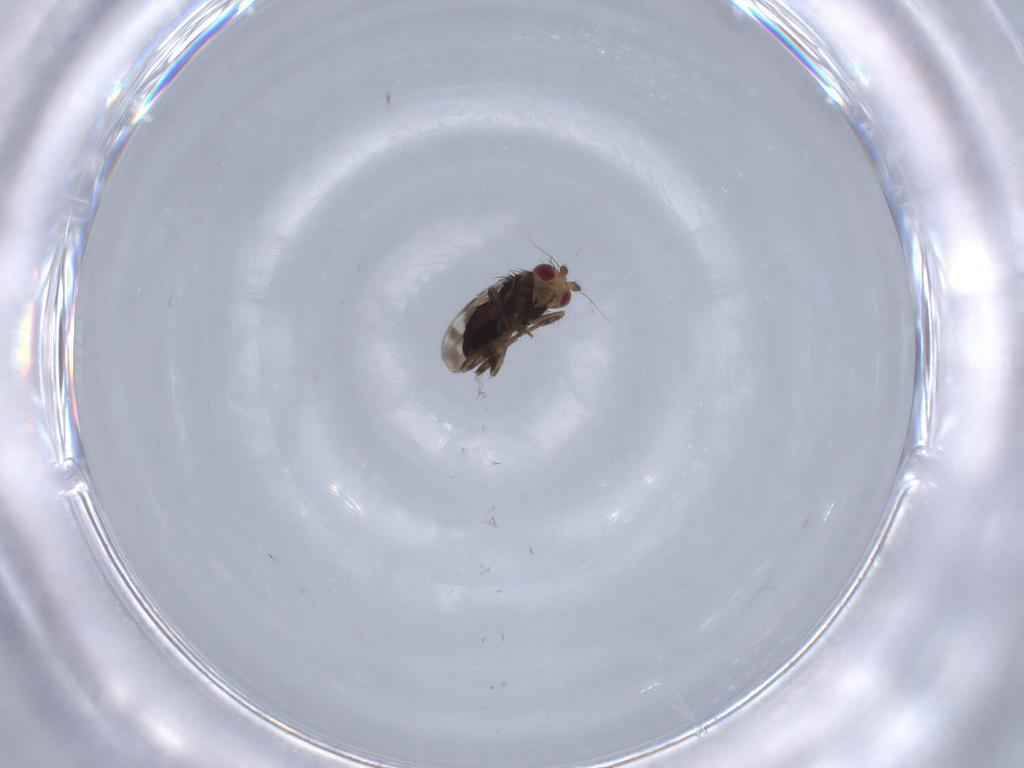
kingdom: Animalia
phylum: Arthropoda
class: Insecta
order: Diptera
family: Sphaeroceridae
